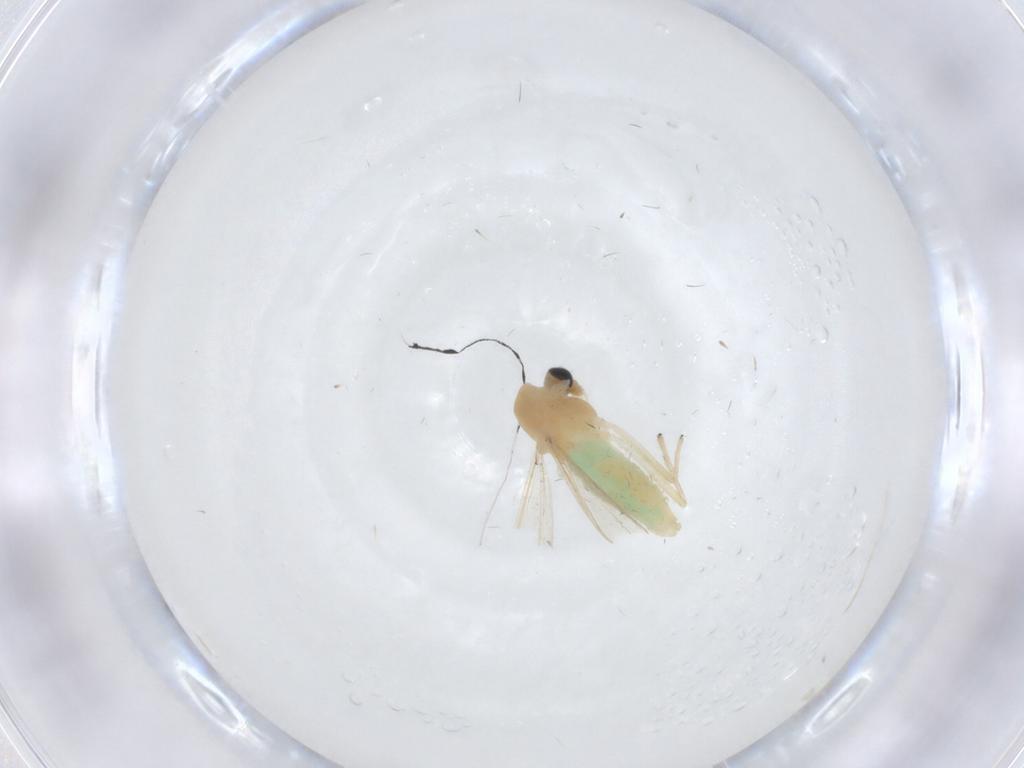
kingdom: Animalia
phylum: Arthropoda
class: Insecta
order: Diptera
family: Chironomidae
